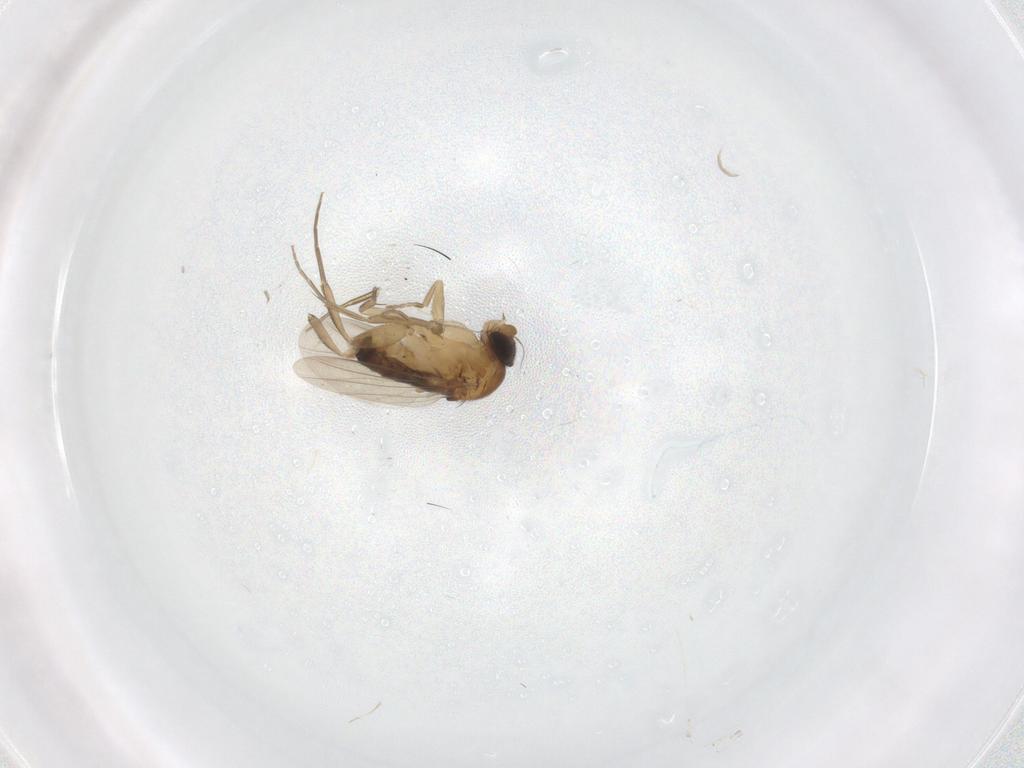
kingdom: Animalia
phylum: Arthropoda
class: Insecta
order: Diptera
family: Phoridae
